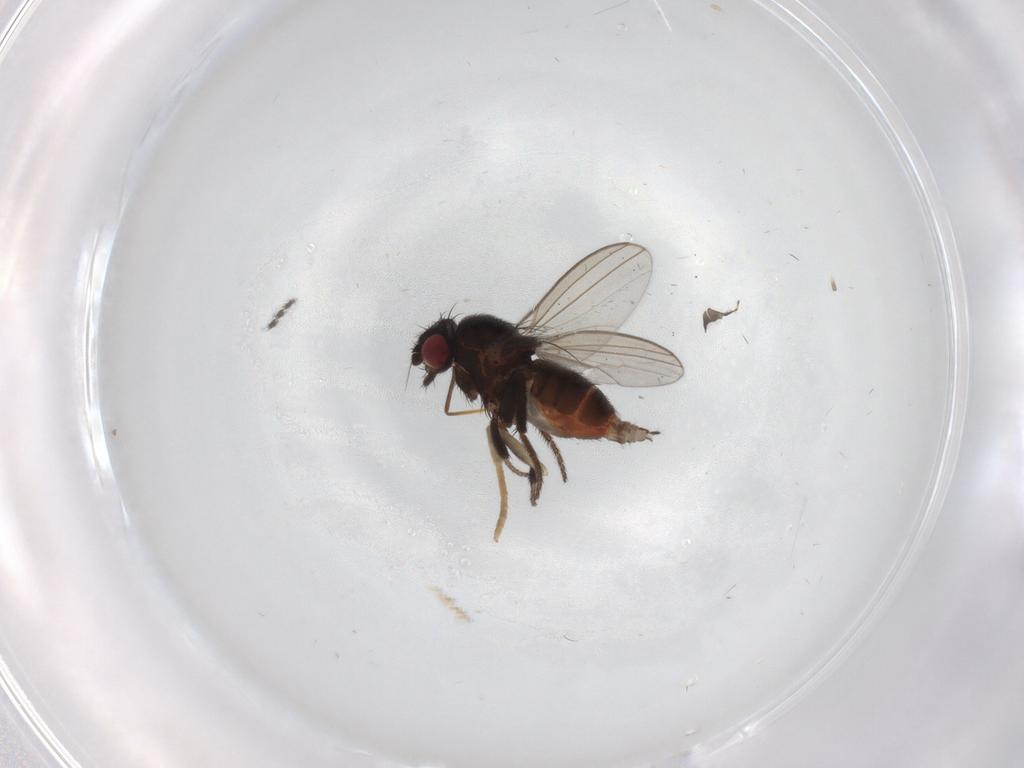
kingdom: Animalia
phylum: Arthropoda
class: Insecta
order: Diptera
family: Milichiidae
